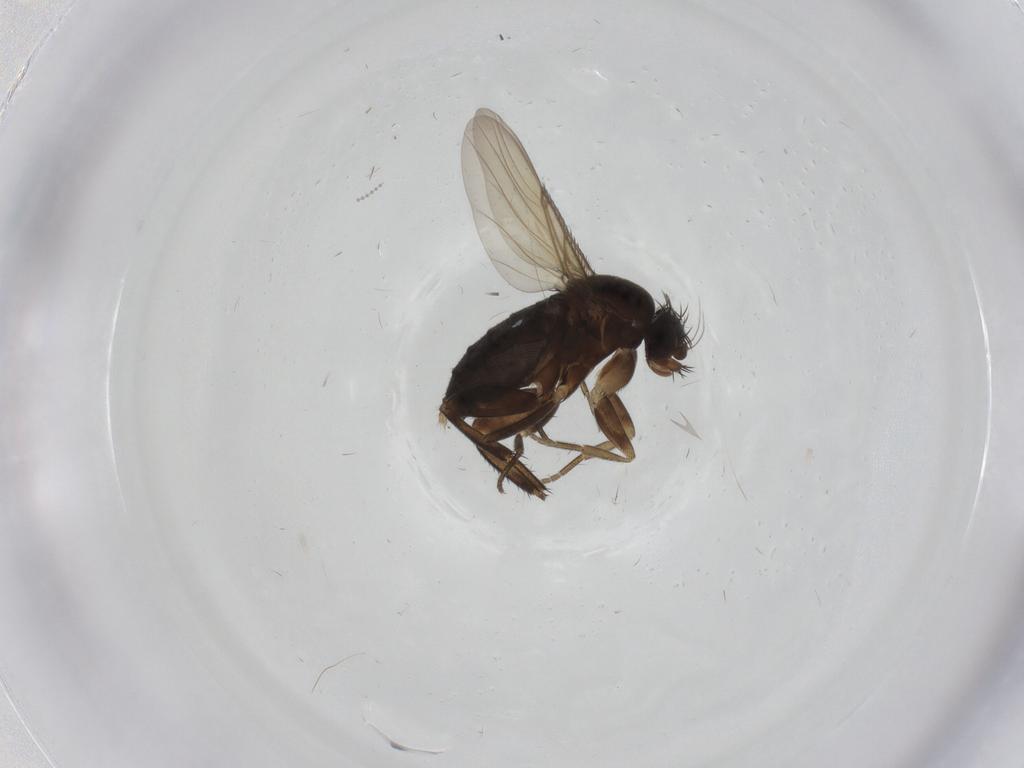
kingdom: Animalia
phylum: Arthropoda
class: Insecta
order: Diptera
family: Phoridae
